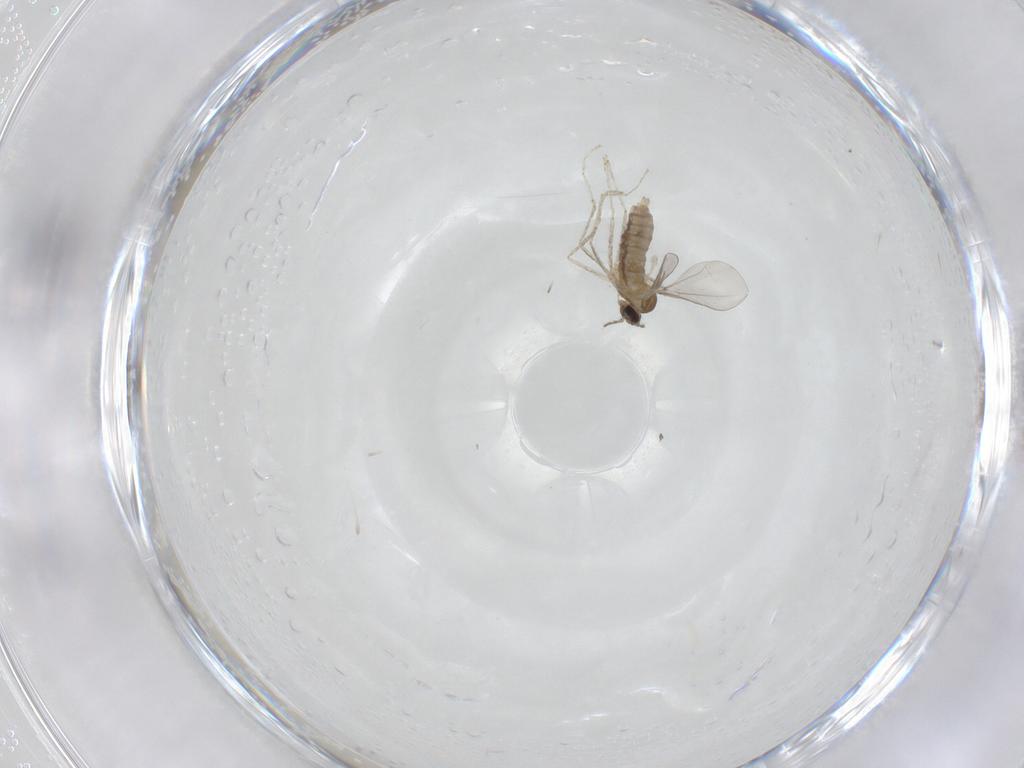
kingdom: Animalia
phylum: Arthropoda
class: Insecta
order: Diptera
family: Cecidomyiidae
